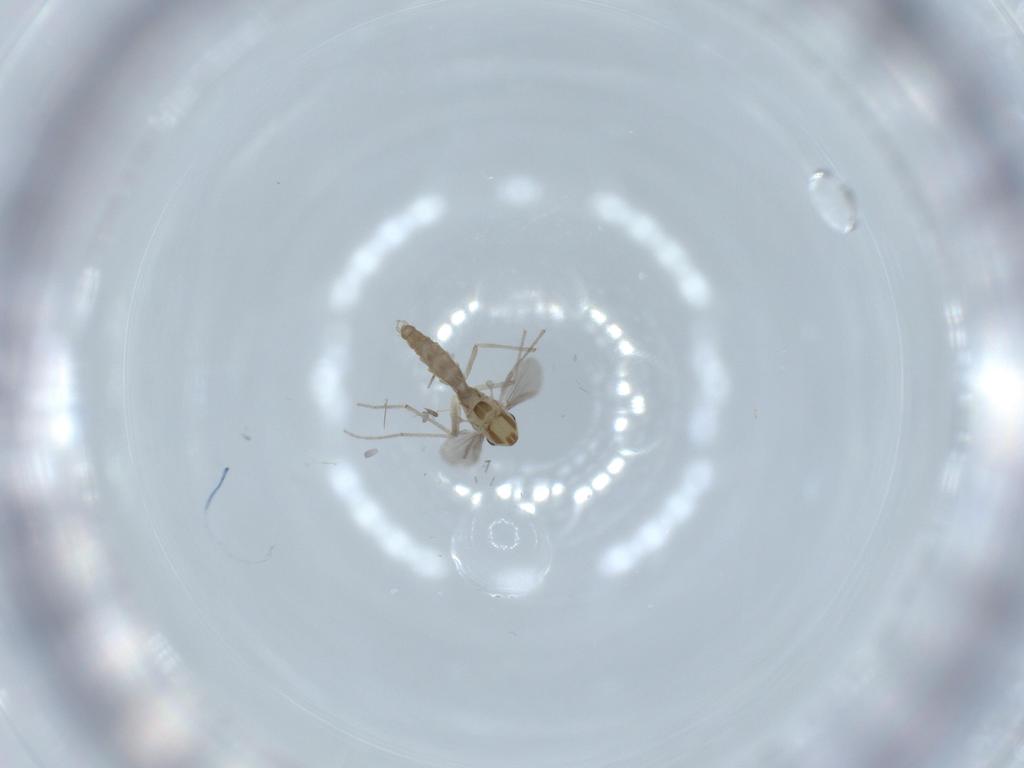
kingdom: Animalia
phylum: Arthropoda
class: Insecta
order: Diptera
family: Chironomidae
